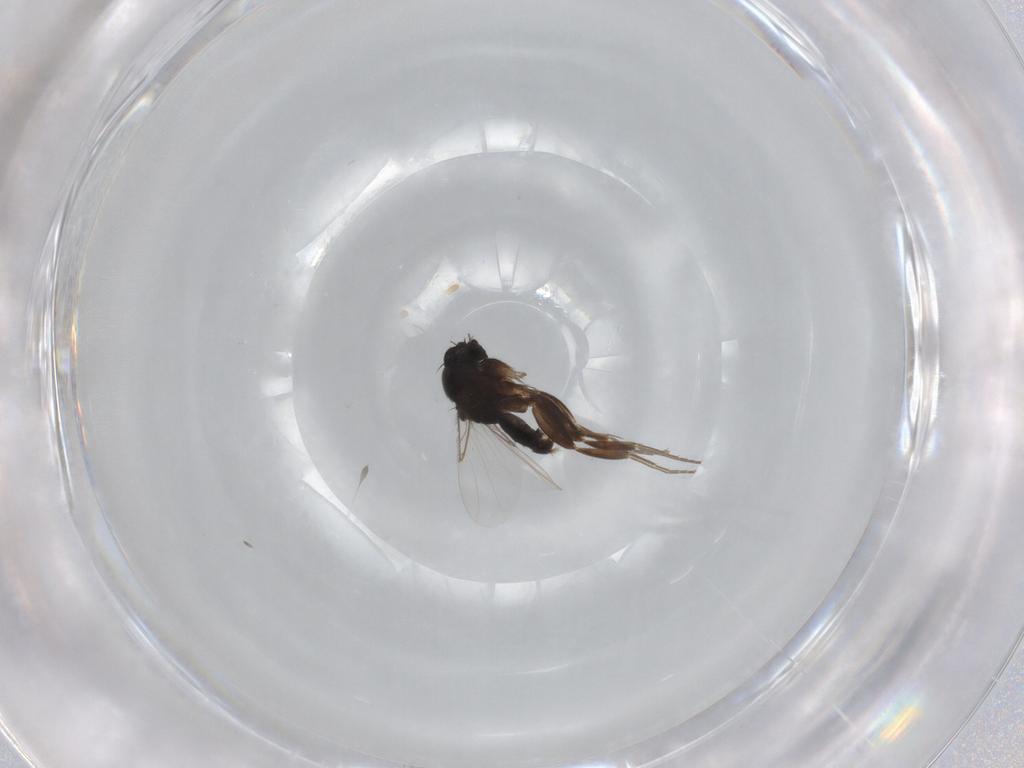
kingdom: Animalia
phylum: Arthropoda
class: Insecta
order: Diptera
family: Phoridae
